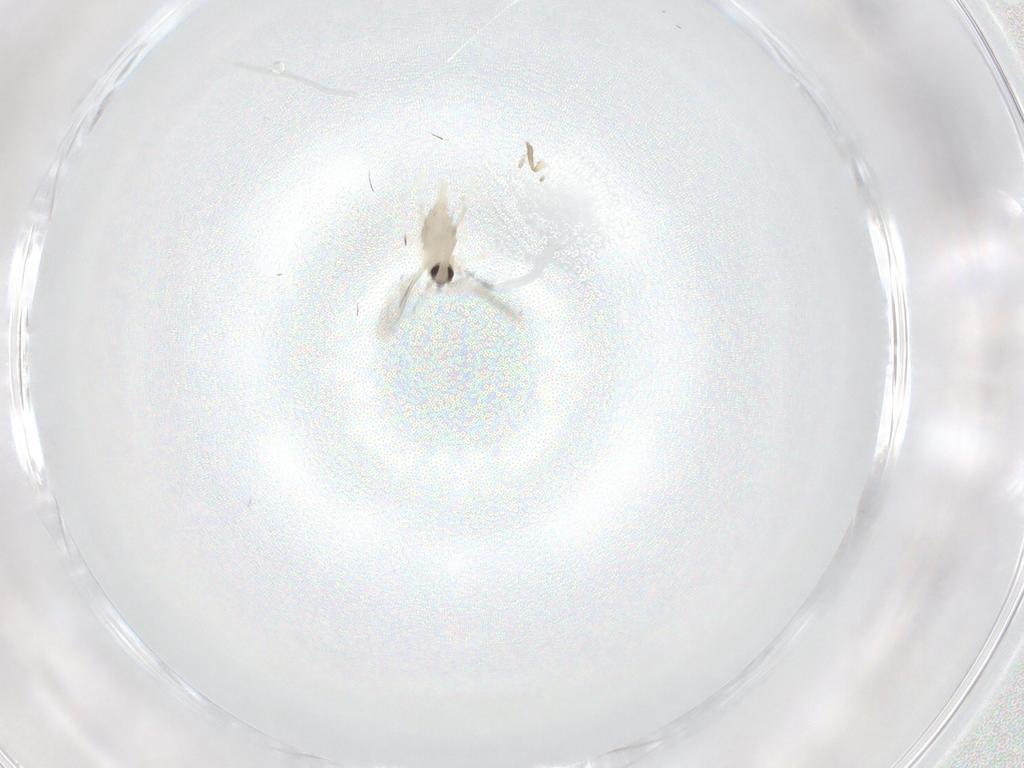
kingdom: Animalia
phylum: Arthropoda
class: Insecta
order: Diptera
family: Cecidomyiidae
